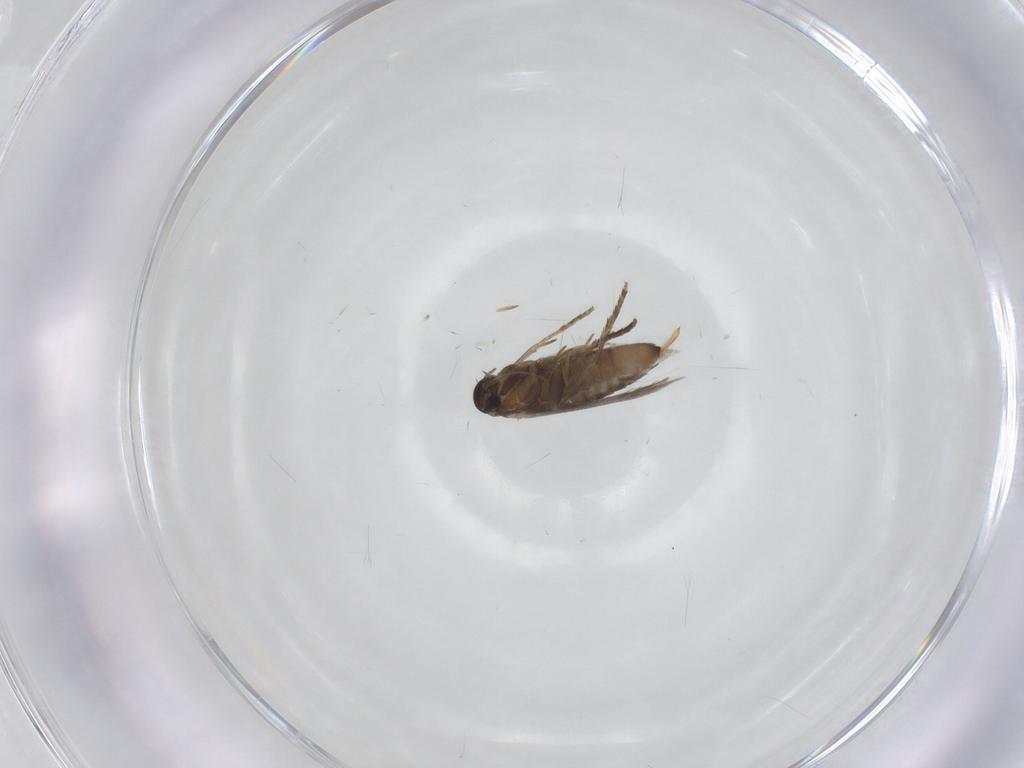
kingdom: Animalia
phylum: Arthropoda
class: Insecta
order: Lepidoptera
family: Heliozelidae
